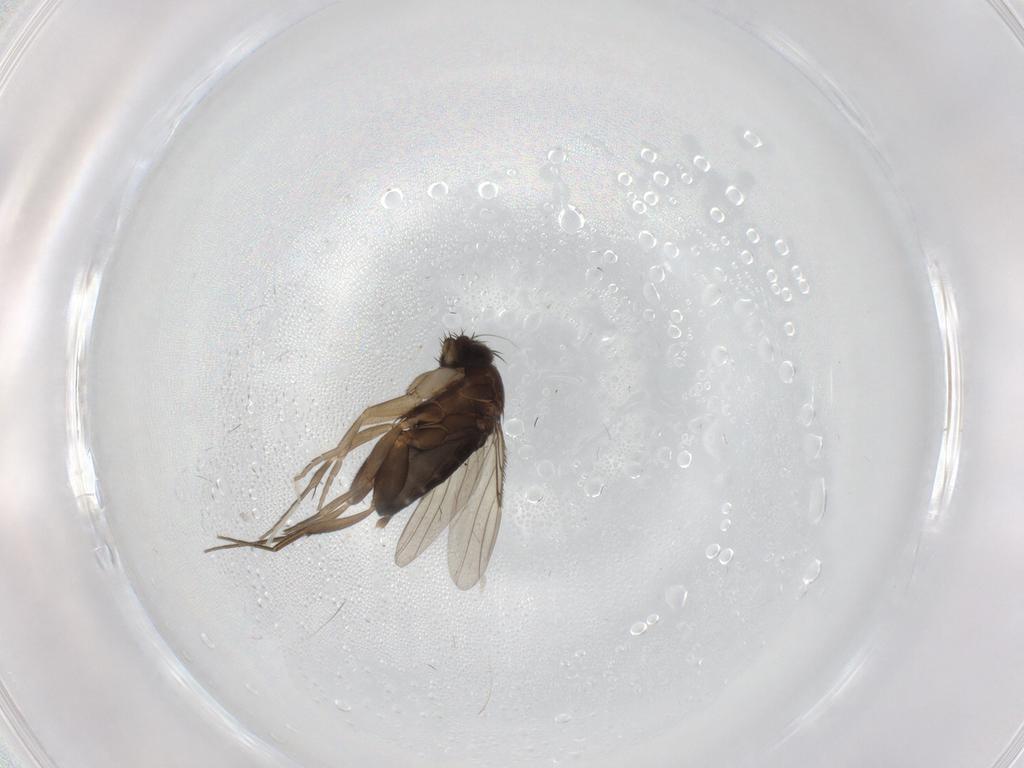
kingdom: Animalia
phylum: Arthropoda
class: Insecta
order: Diptera
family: Phoridae
